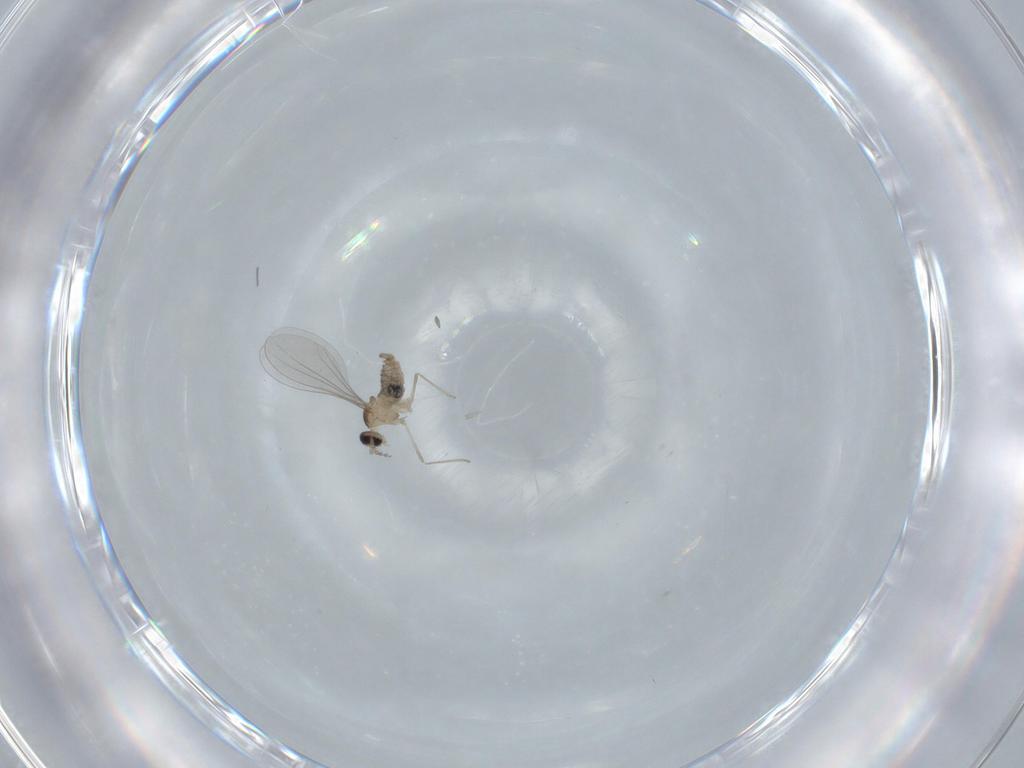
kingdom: Animalia
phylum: Arthropoda
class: Insecta
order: Diptera
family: Cecidomyiidae
